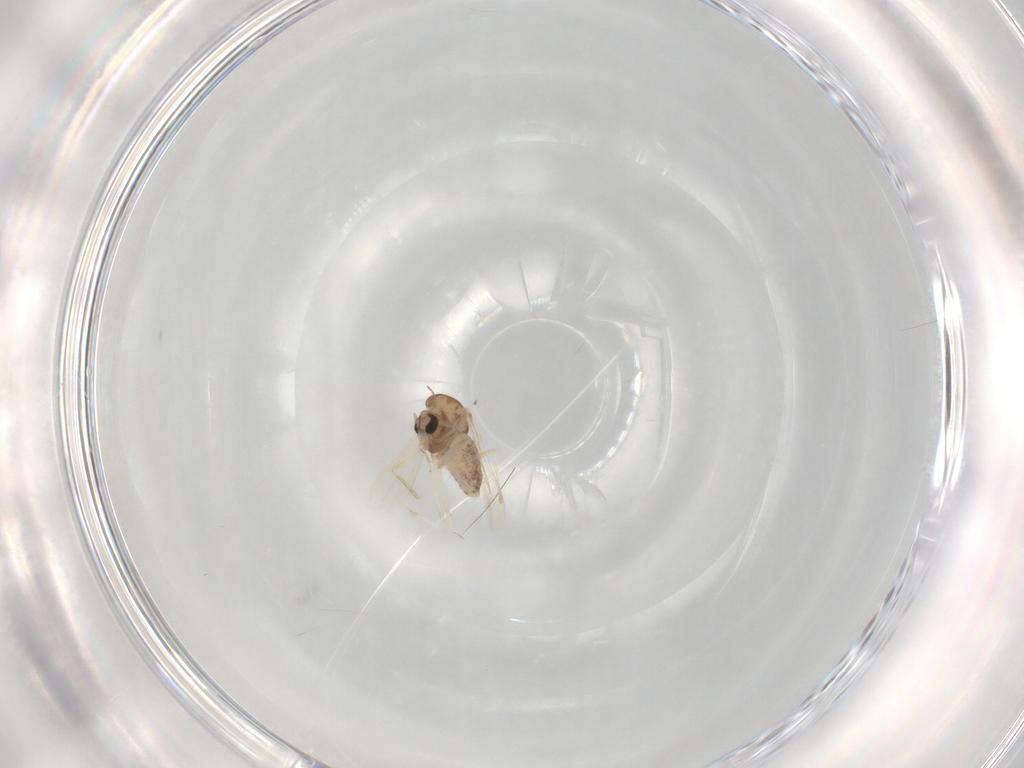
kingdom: Animalia
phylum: Arthropoda
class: Insecta
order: Diptera
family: Chironomidae
